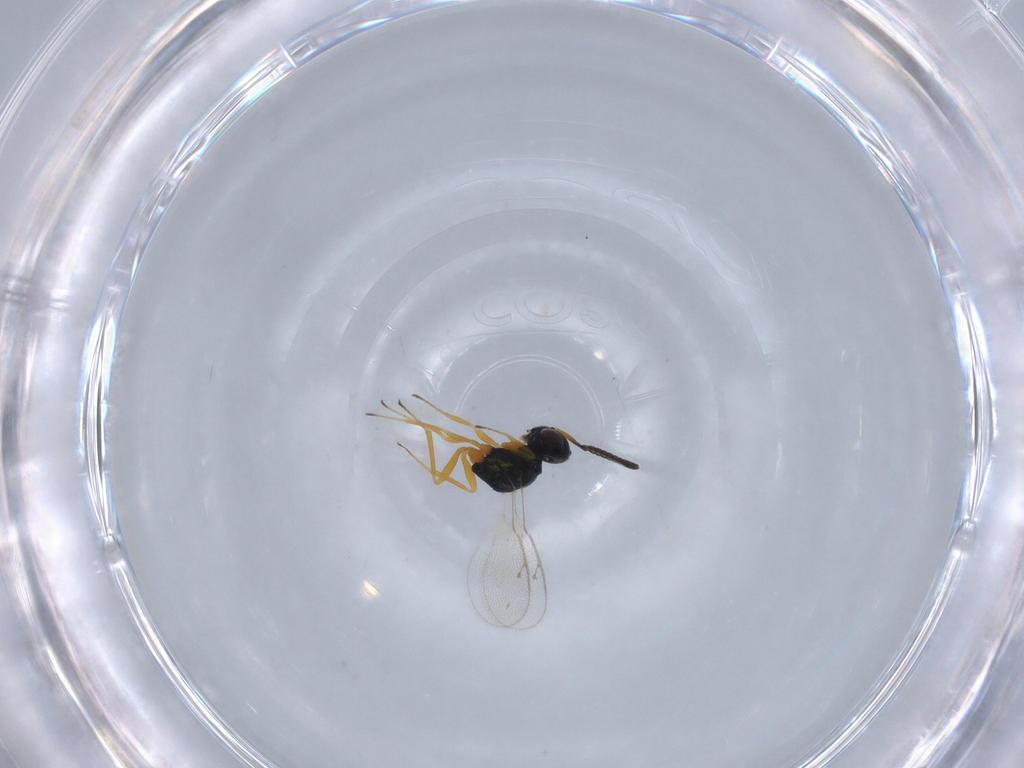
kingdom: Animalia
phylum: Arthropoda
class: Insecta
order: Hymenoptera
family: Pteromalidae
